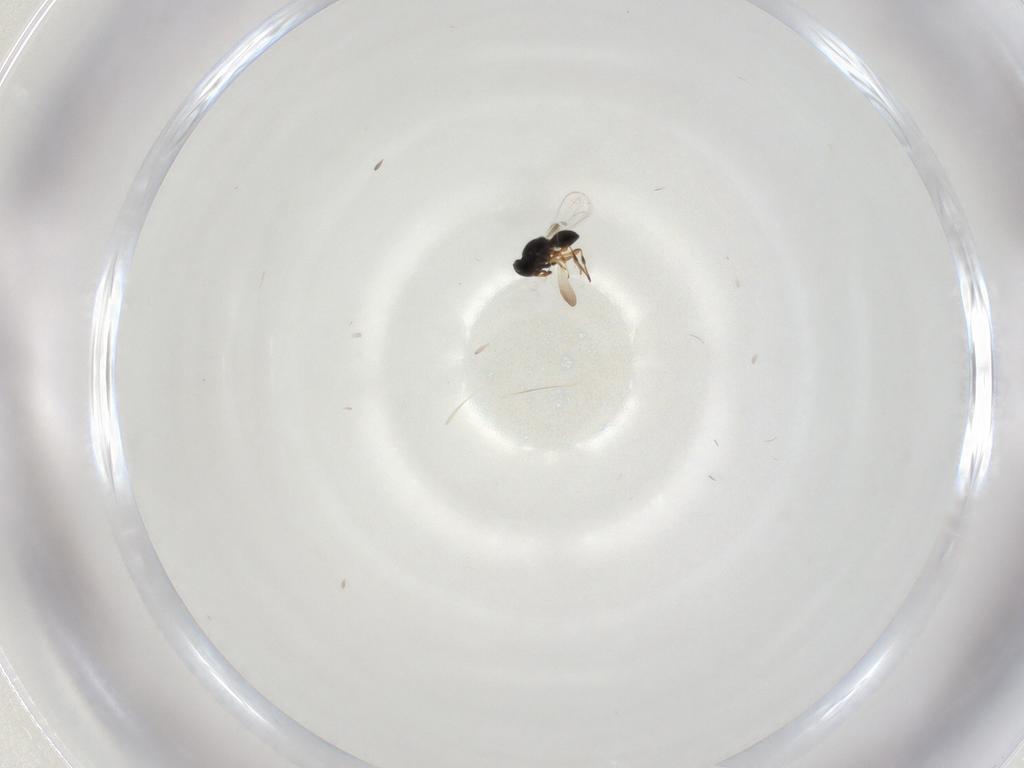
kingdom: Animalia
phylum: Arthropoda
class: Insecta
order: Hymenoptera
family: Platygastridae
